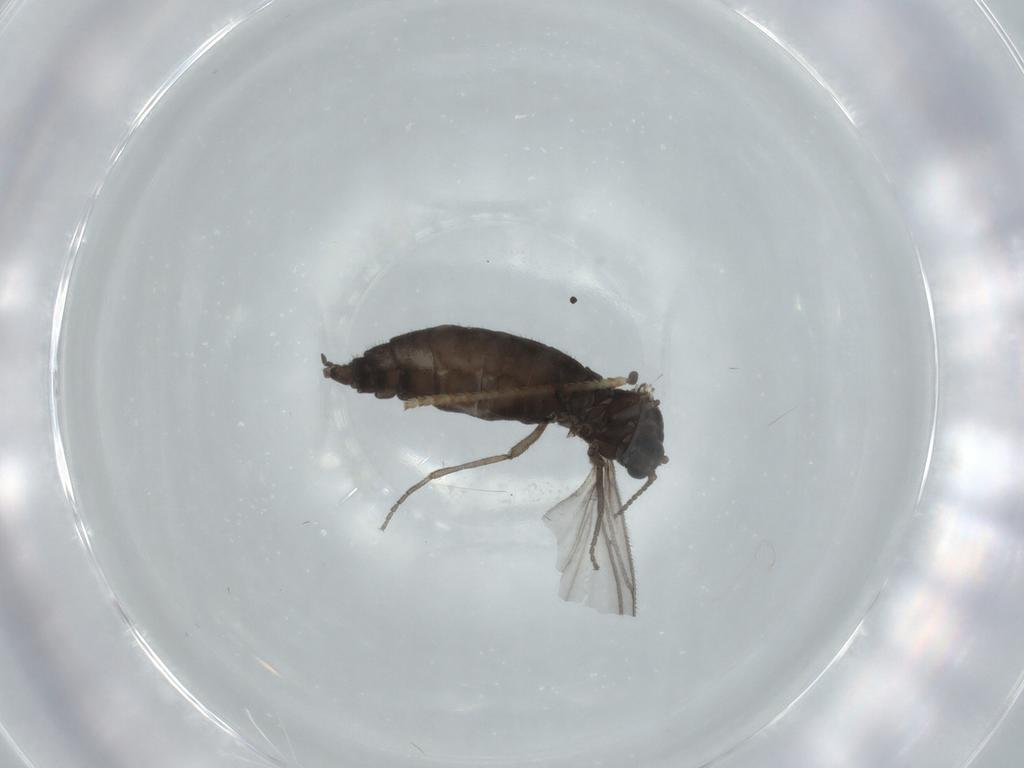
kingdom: Animalia
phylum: Arthropoda
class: Insecta
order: Diptera
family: Sciaridae
